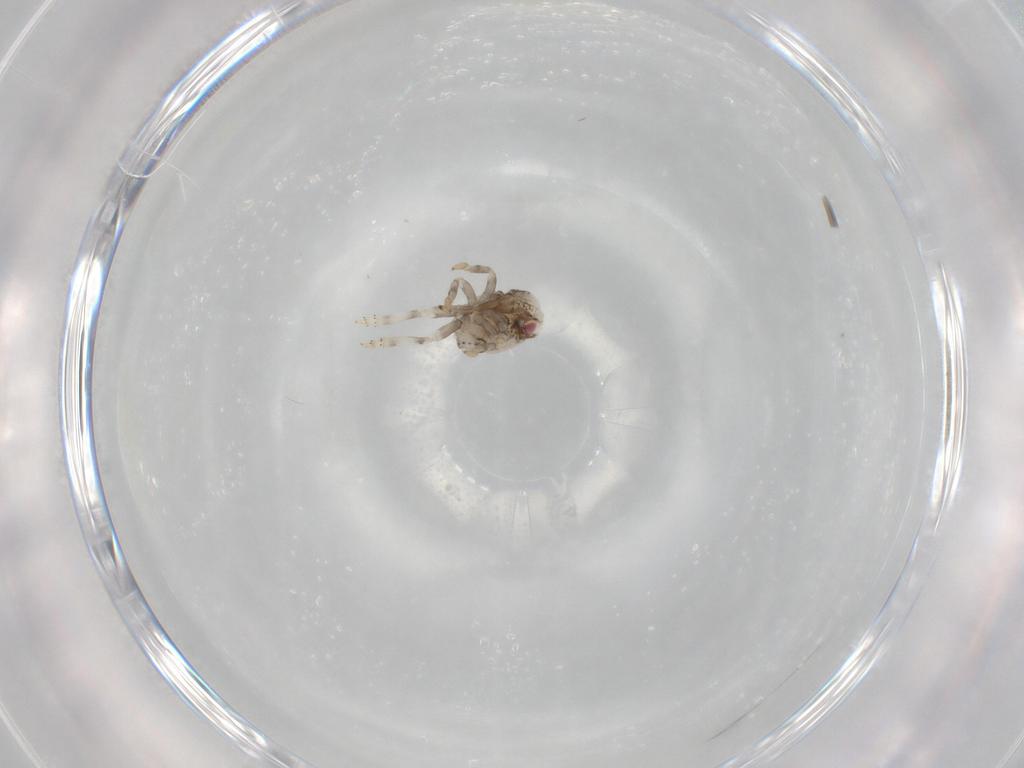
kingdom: Animalia
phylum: Arthropoda
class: Insecta
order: Hemiptera
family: Acanaloniidae
